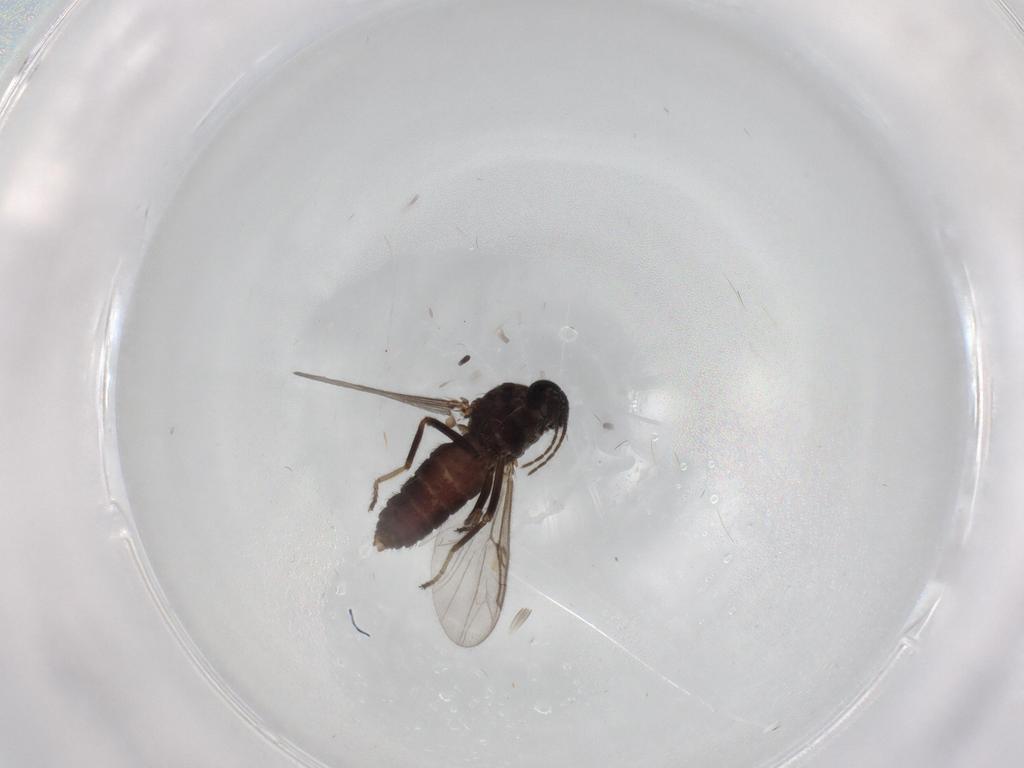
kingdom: Animalia
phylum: Arthropoda
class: Insecta
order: Diptera
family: Ceratopogonidae
